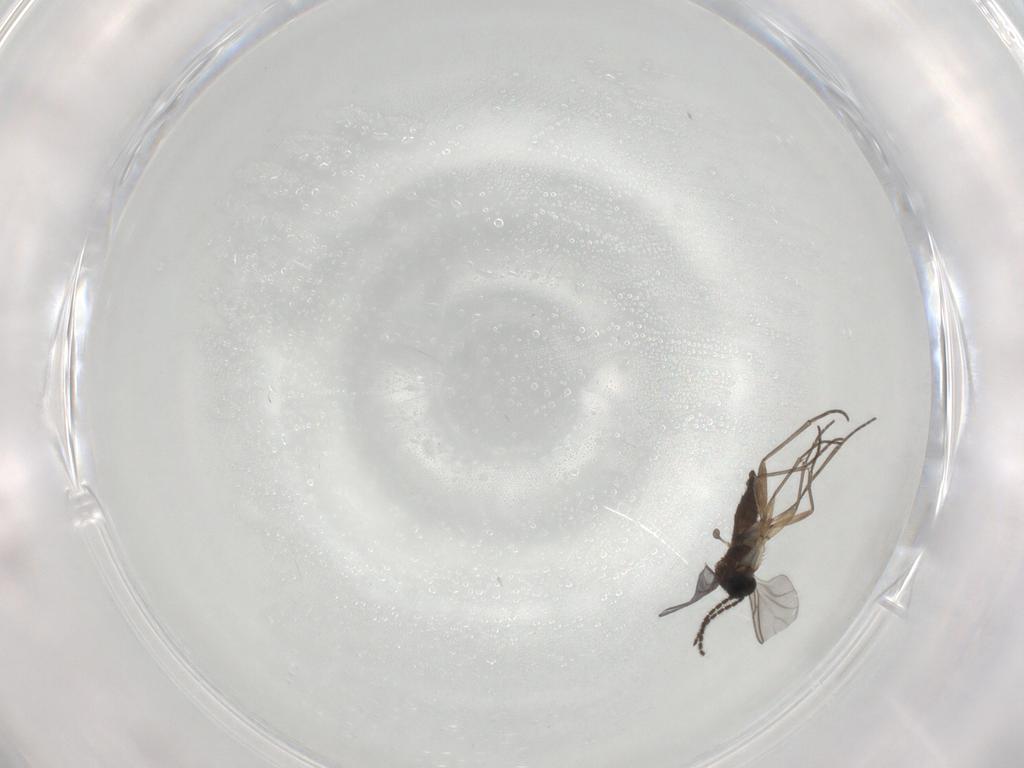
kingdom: Animalia
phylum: Arthropoda
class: Insecta
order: Diptera
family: Sciaridae
